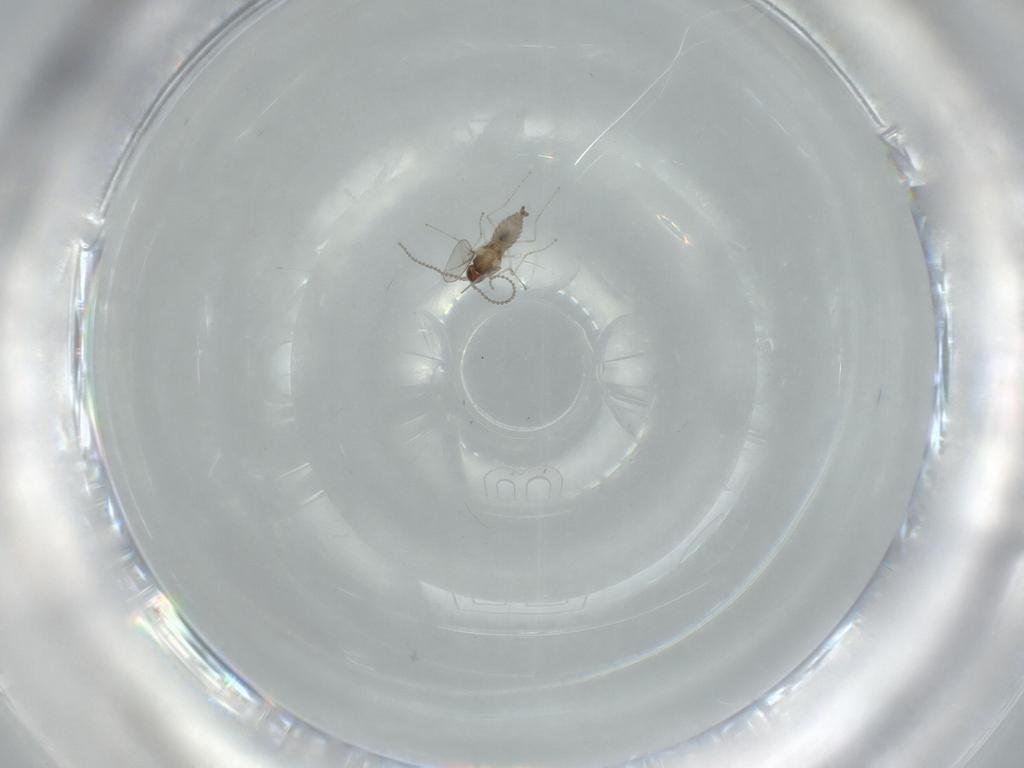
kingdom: Animalia
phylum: Arthropoda
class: Insecta
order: Diptera
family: Cecidomyiidae
